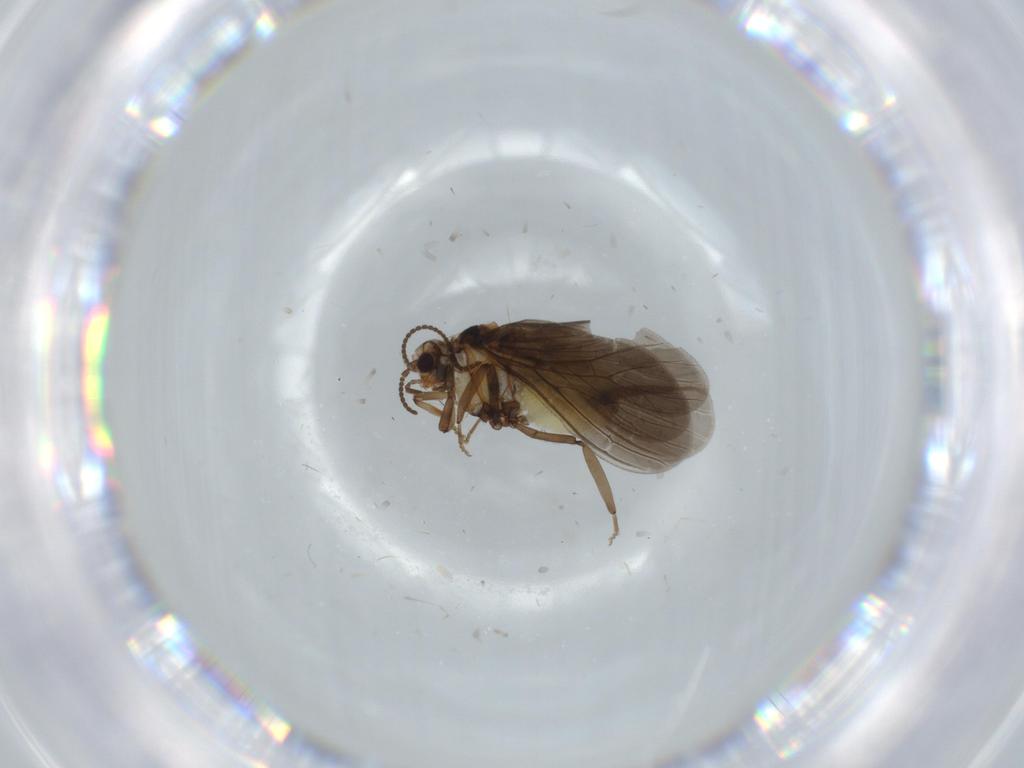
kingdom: Animalia
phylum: Arthropoda
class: Insecta
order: Neuroptera
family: Coniopterygidae
